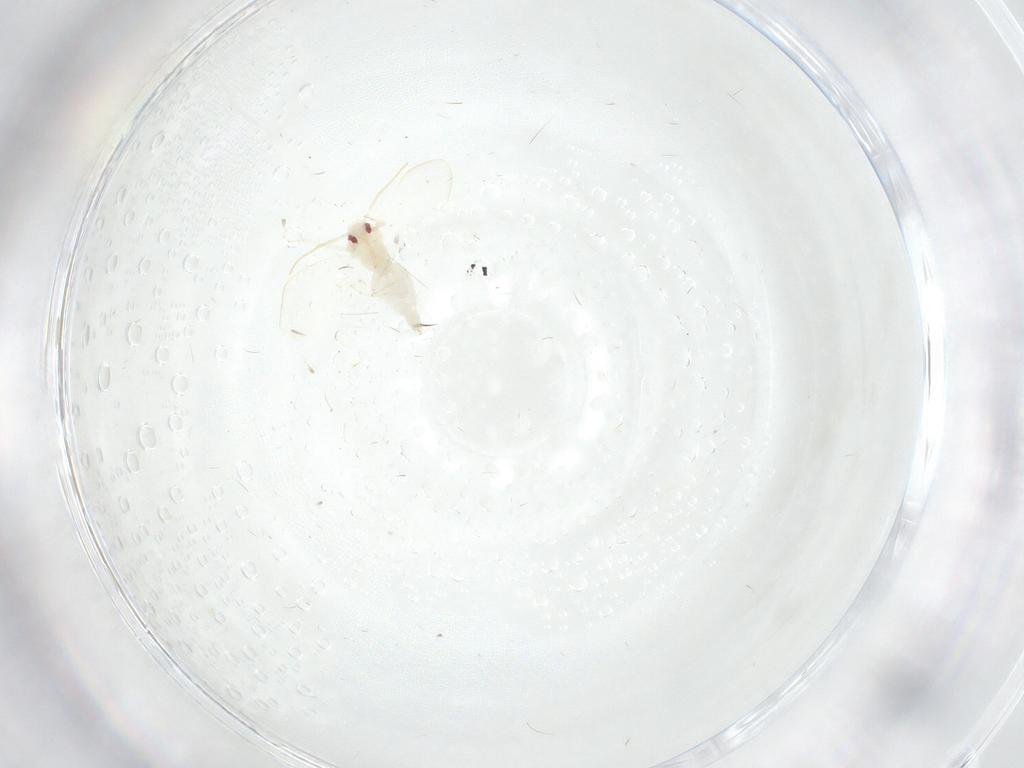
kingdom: Animalia
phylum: Arthropoda
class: Insecta
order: Hemiptera
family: Aleyrodidae
